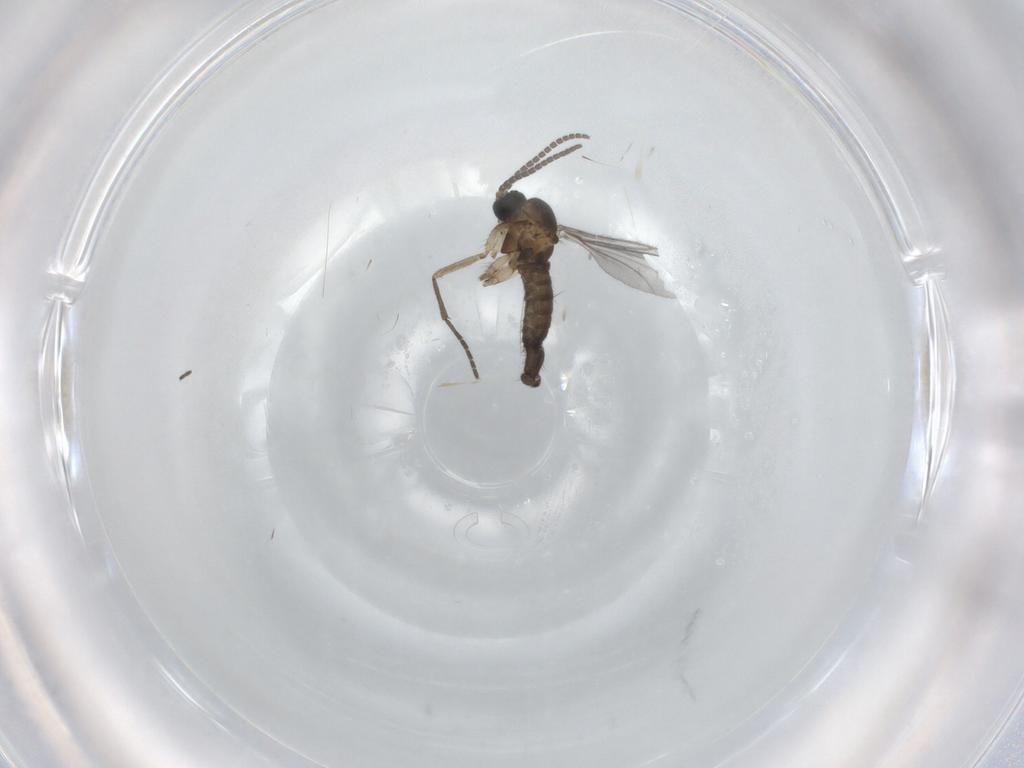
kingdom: Animalia
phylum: Arthropoda
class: Insecta
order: Diptera
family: Sciaridae
